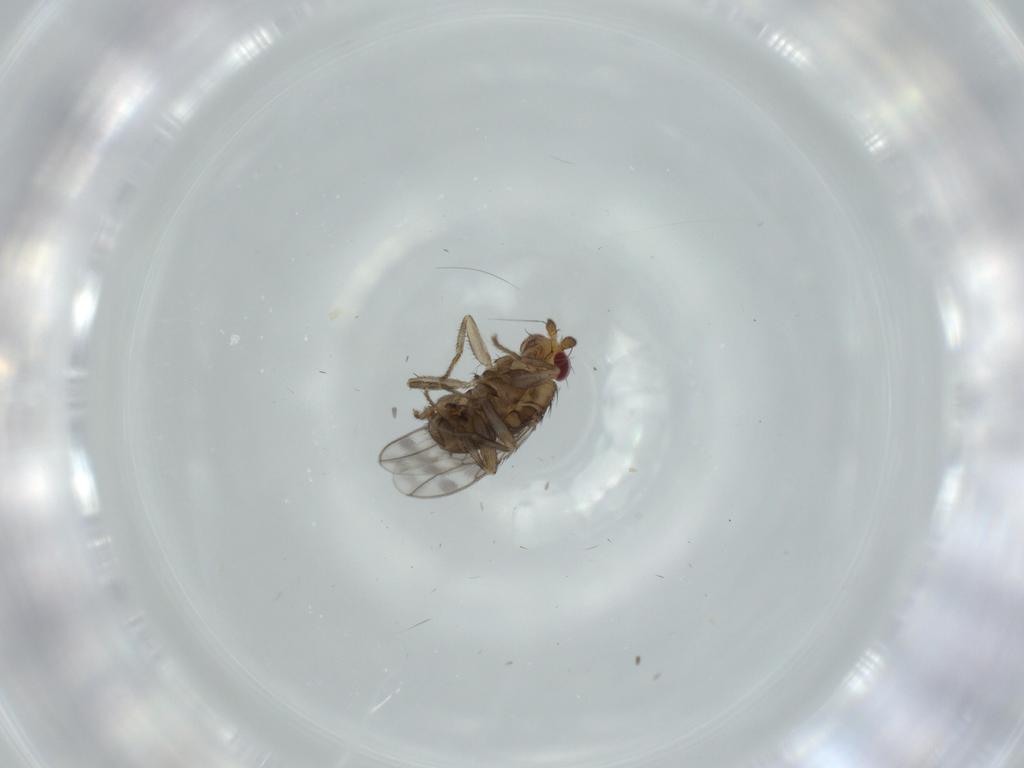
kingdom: Animalia
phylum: Arthropoda
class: Insecta
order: Diptera
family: Sphaeroceridae
